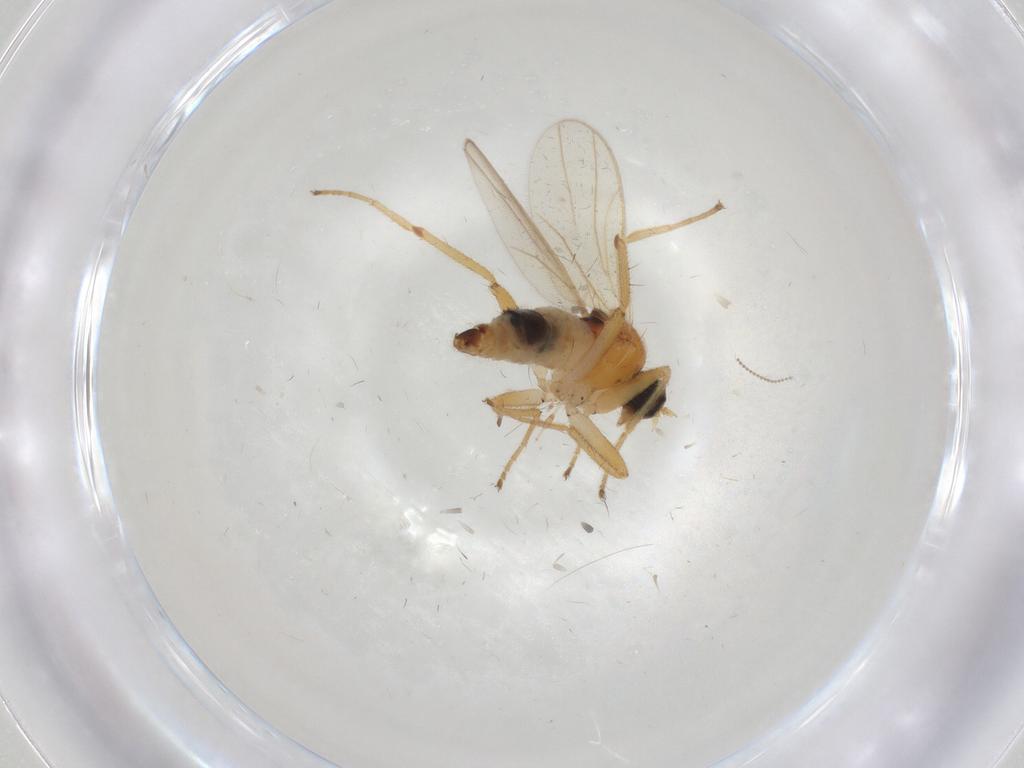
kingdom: Animalia
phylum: Arthropoda
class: Insecta
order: Diptera
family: Hybotidae
